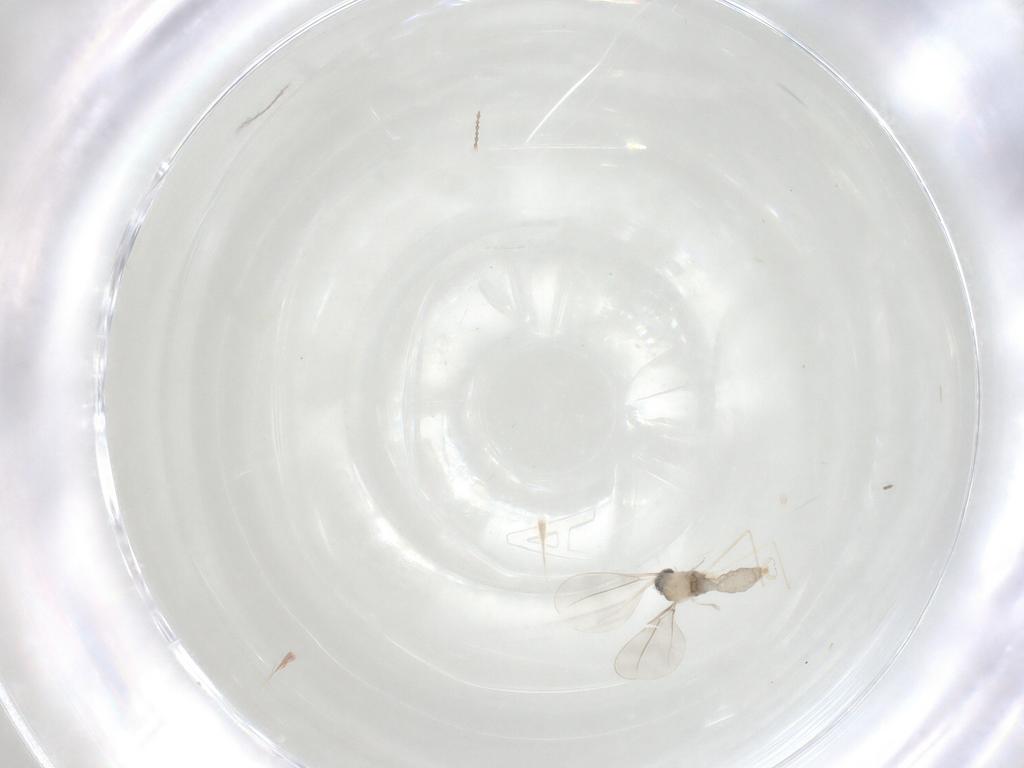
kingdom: Animalia
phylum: Arthropoda
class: Insecta
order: Diptera
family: Cecidomyiidae
